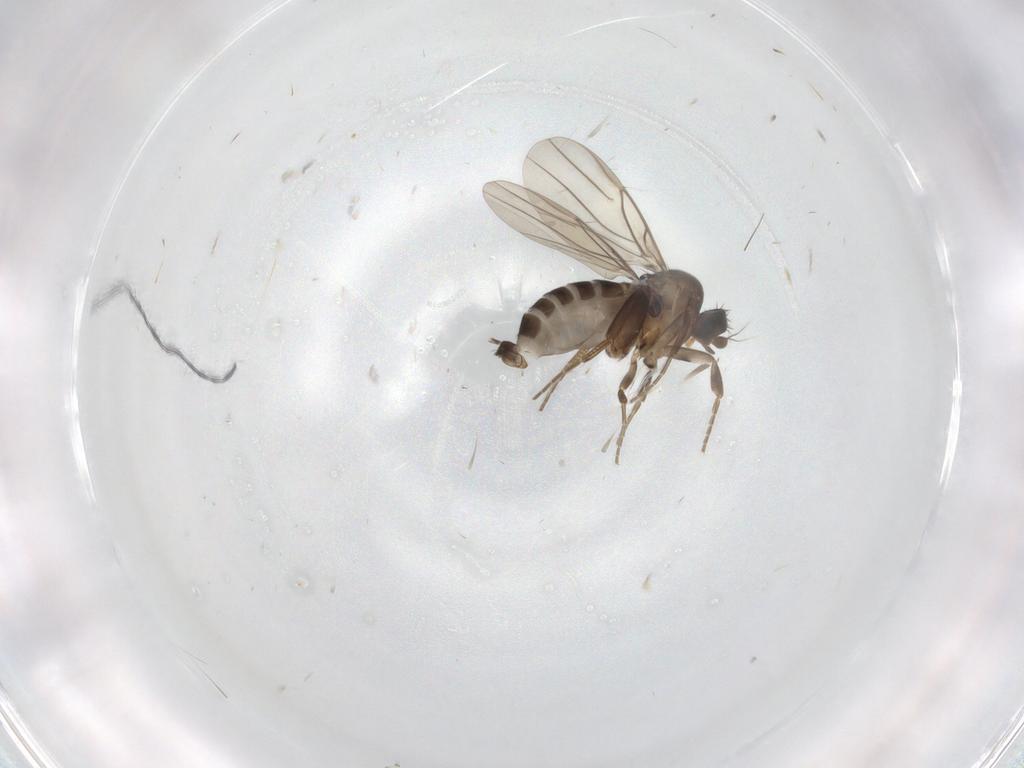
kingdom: Animalia
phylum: Arthropoda
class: Insecta
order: Diptera
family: Phoridae
